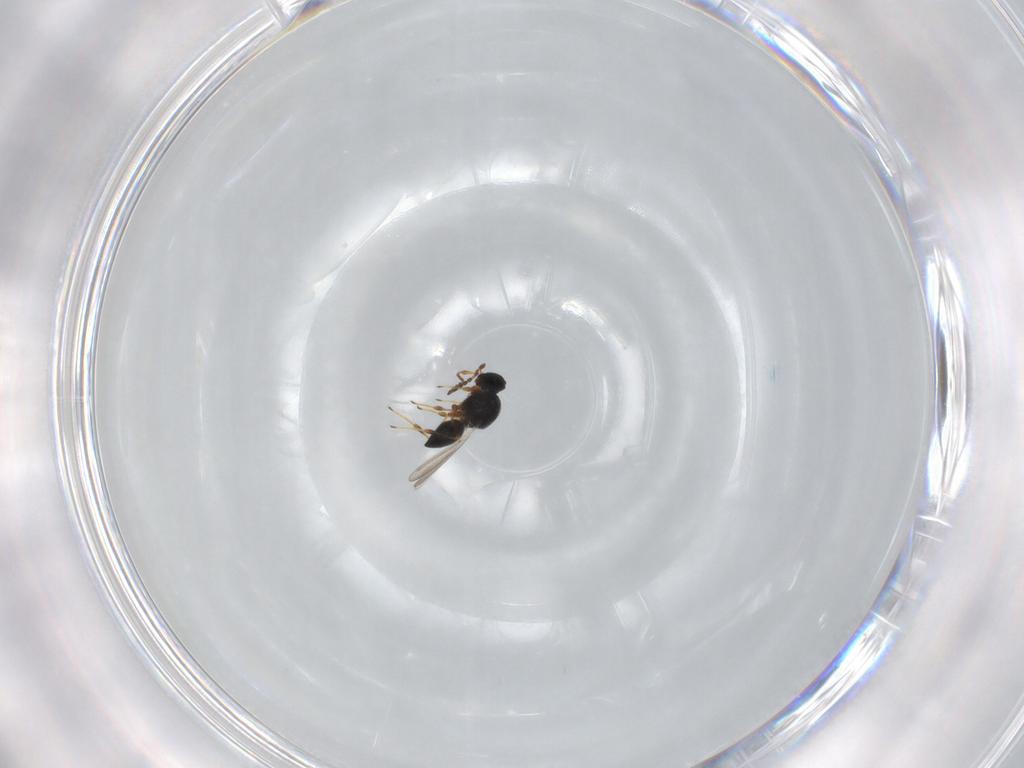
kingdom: Animalia
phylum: Arthropoda
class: Insecta
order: Hymenoptera
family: Platygastridae
